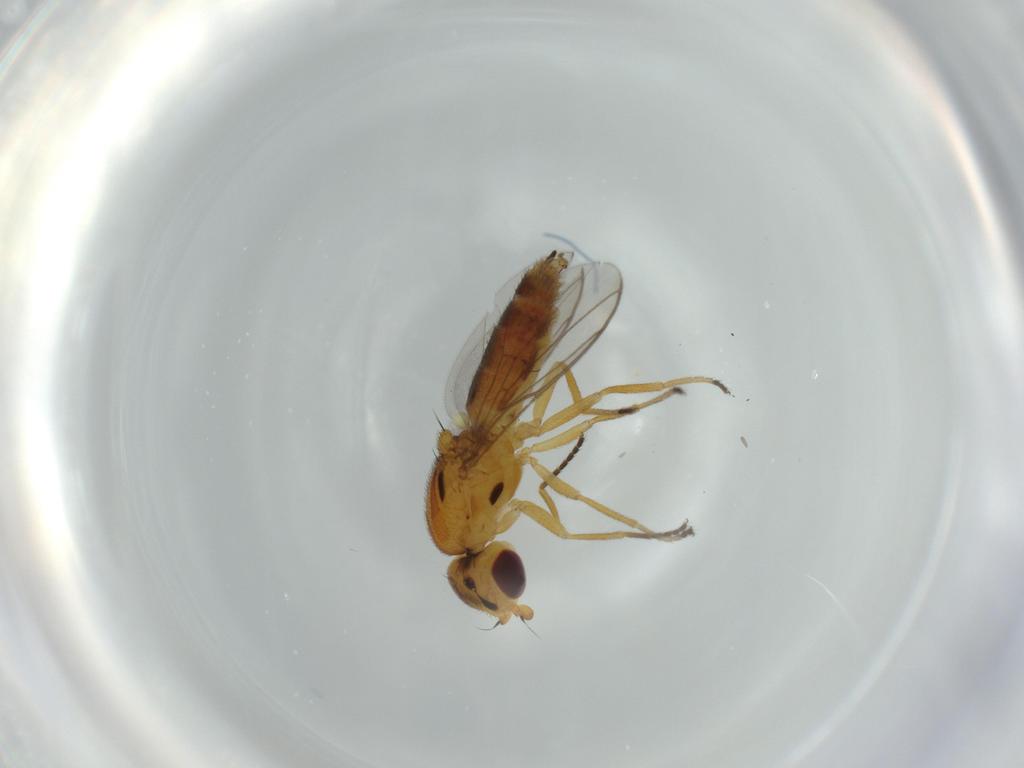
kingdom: Animalia
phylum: Arthropoda
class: Insecta
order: Diptera
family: Chloropidae
